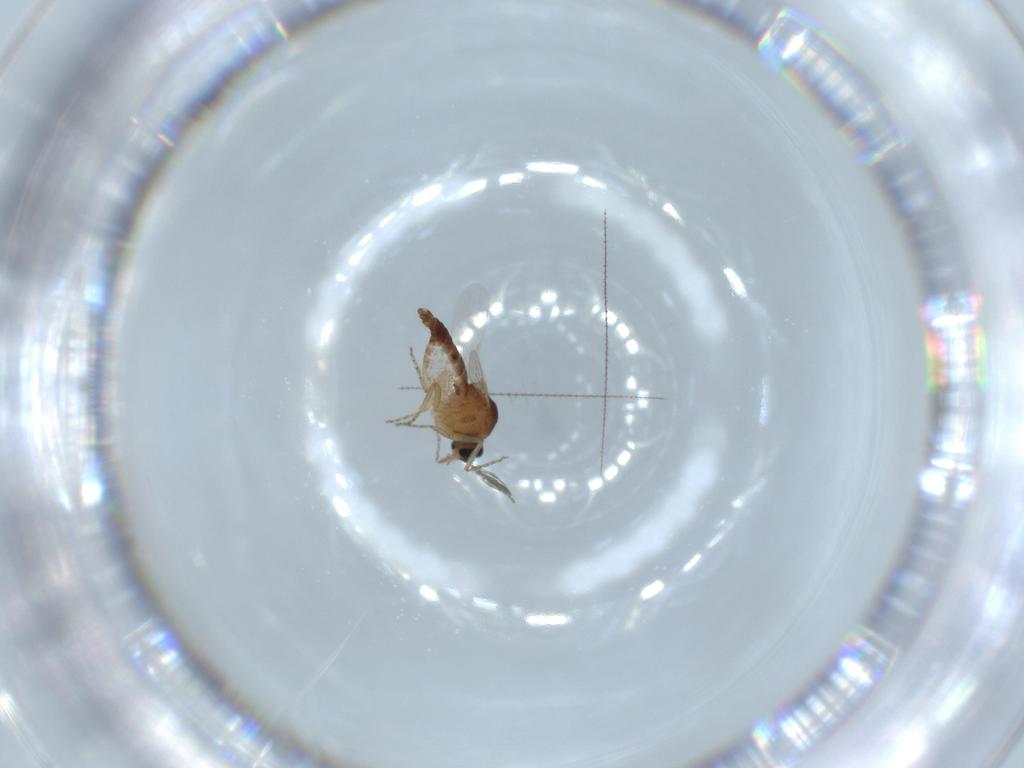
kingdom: Animalia
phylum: Arthropoda
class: Insecta
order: Diptera
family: Ceratopogonidae
